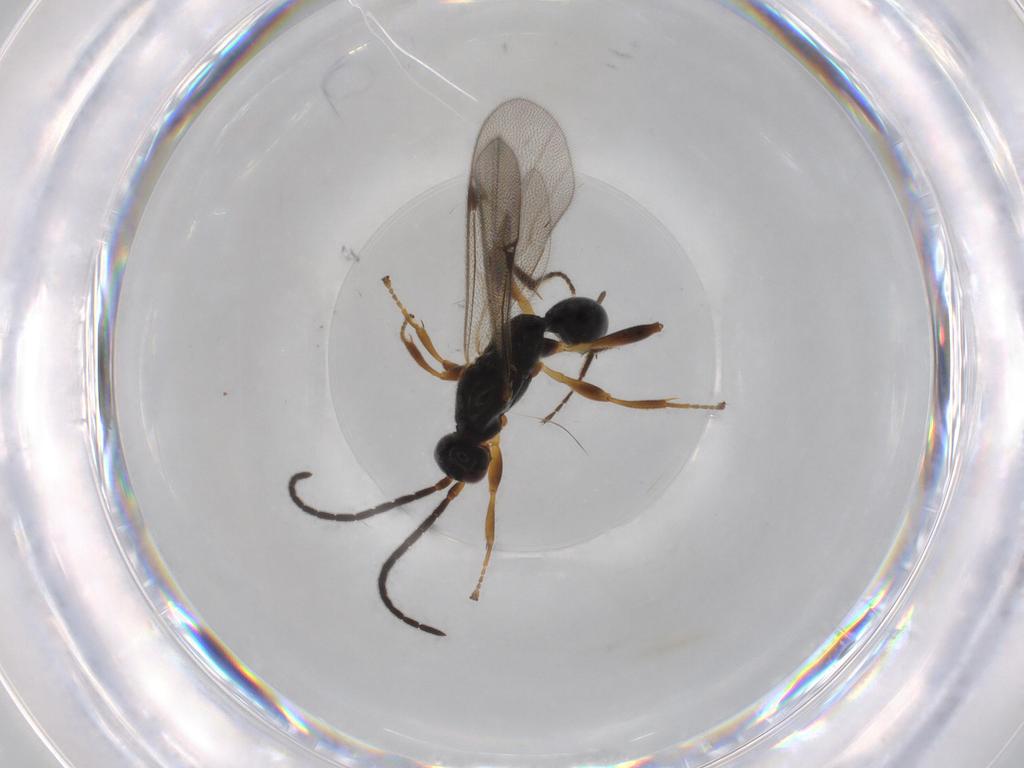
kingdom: Animalia
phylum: Arthropoda
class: Insecta
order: Hymenoptera
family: Proctotrupidae
